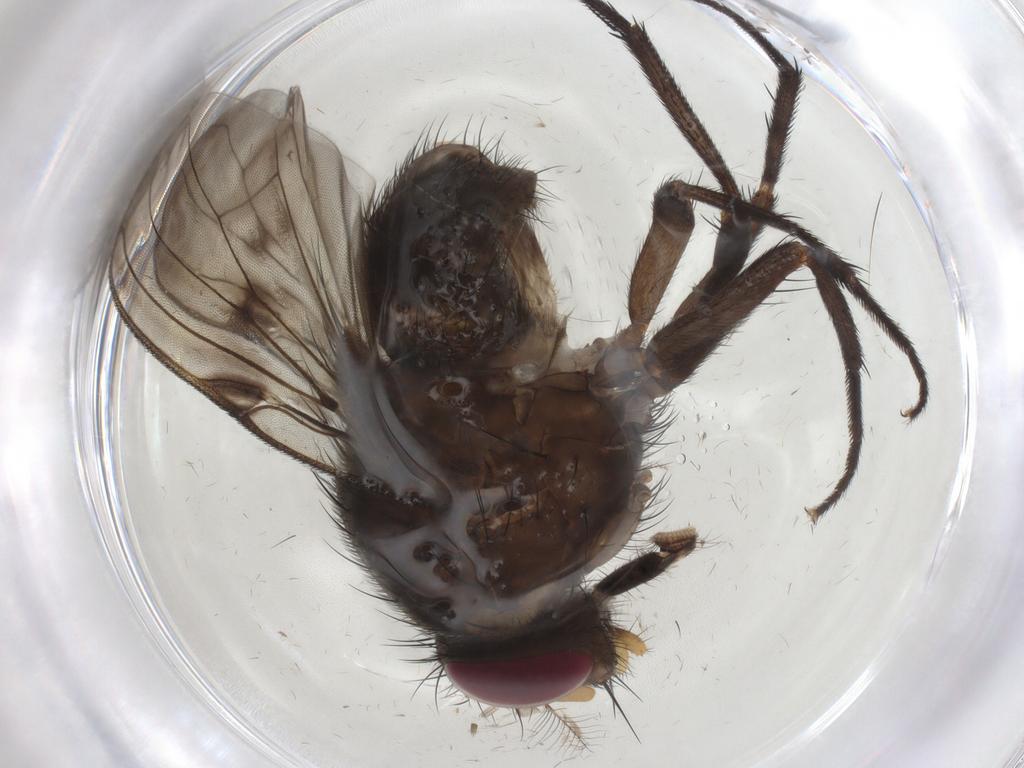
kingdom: Animalia
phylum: Arthropoda
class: Insecta
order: Diptera
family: Muscidae
